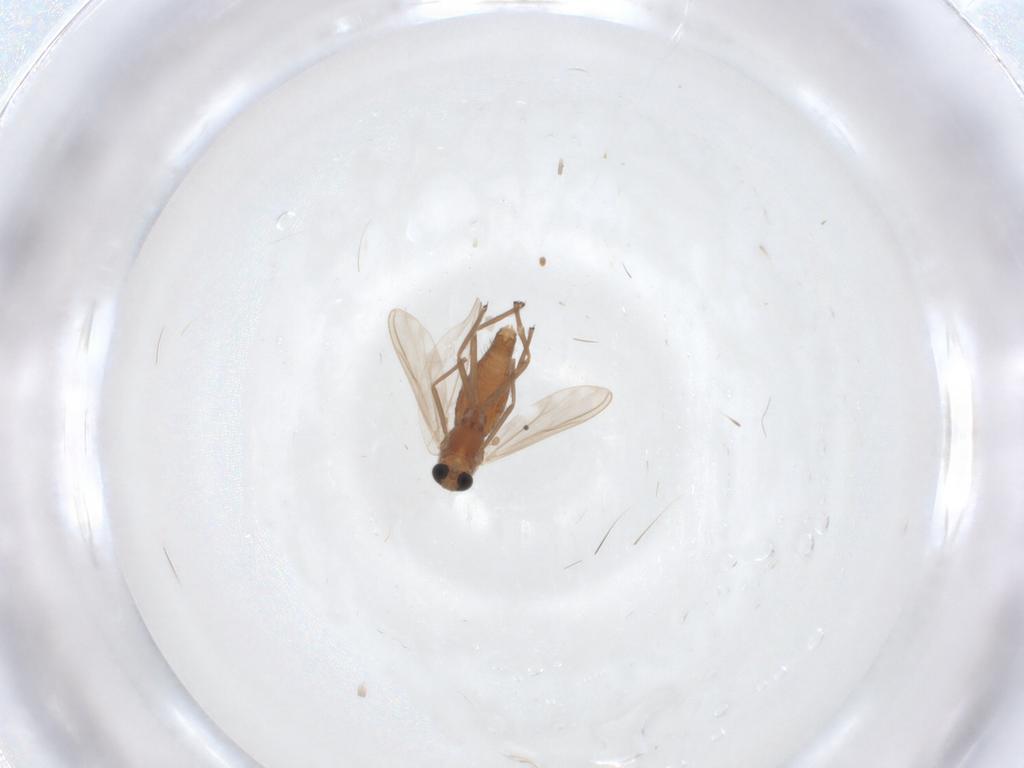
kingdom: Animalia
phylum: Arthropoda
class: Insecta
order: Diptera
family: Chironomidae
